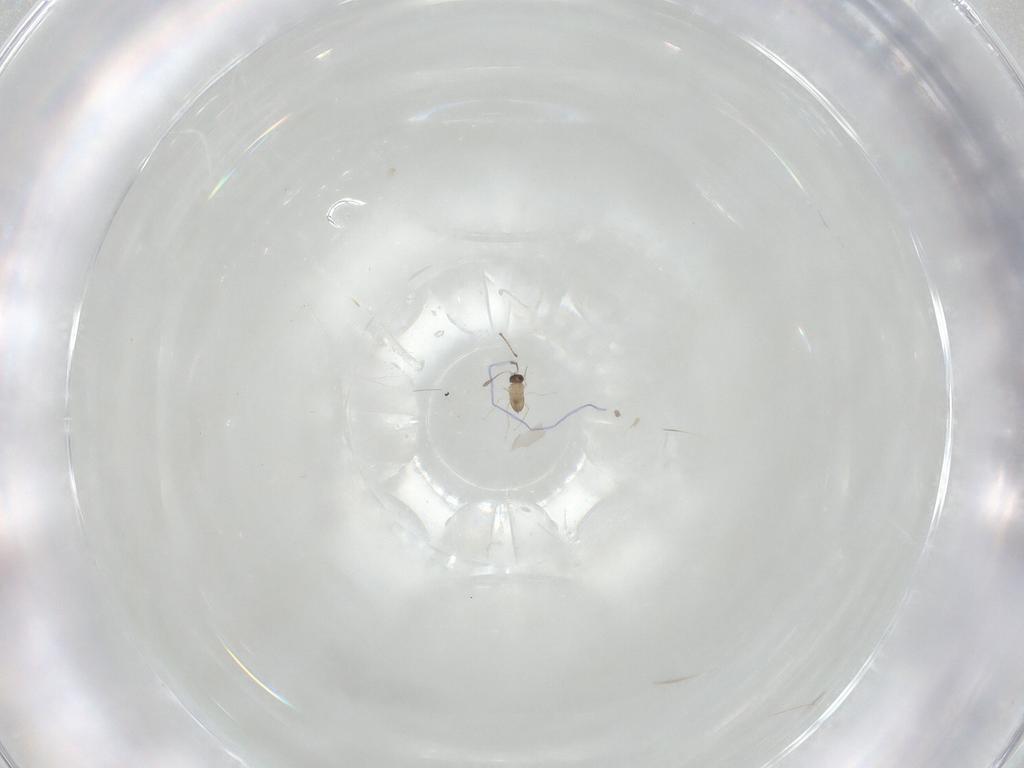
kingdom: Animalia
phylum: Arthropoda
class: Insecta
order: Hymenoptera
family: Mymaridae
